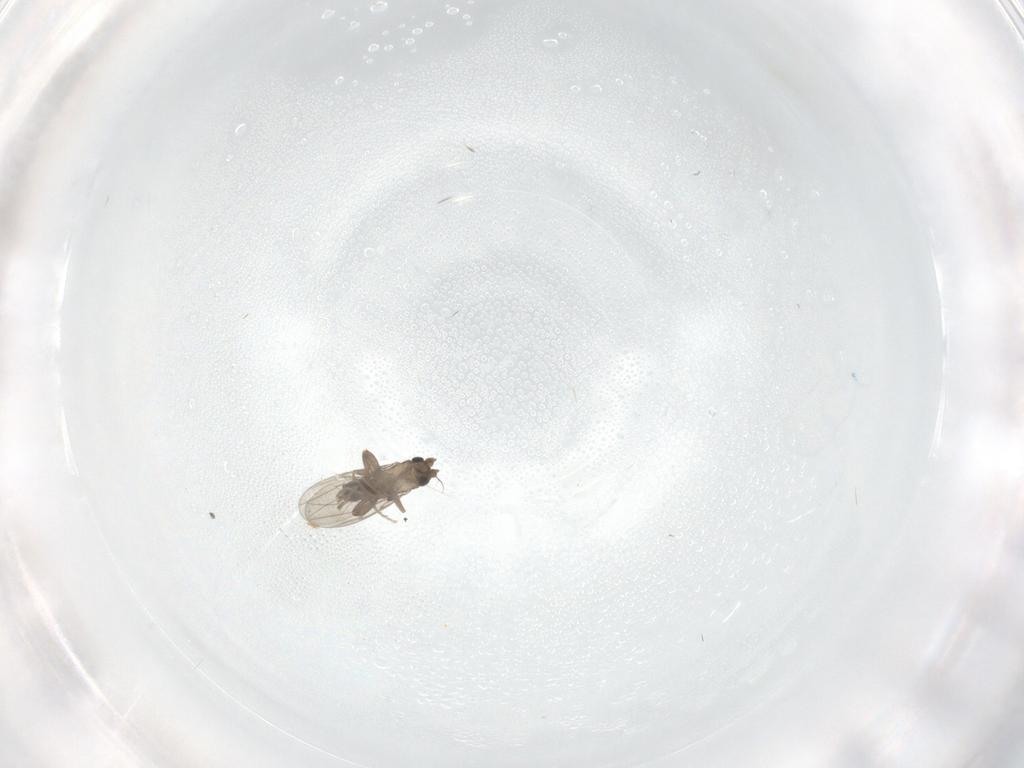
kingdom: Animalia
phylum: Arthropoda
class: Insecta
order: Diptera
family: Chironomidae
